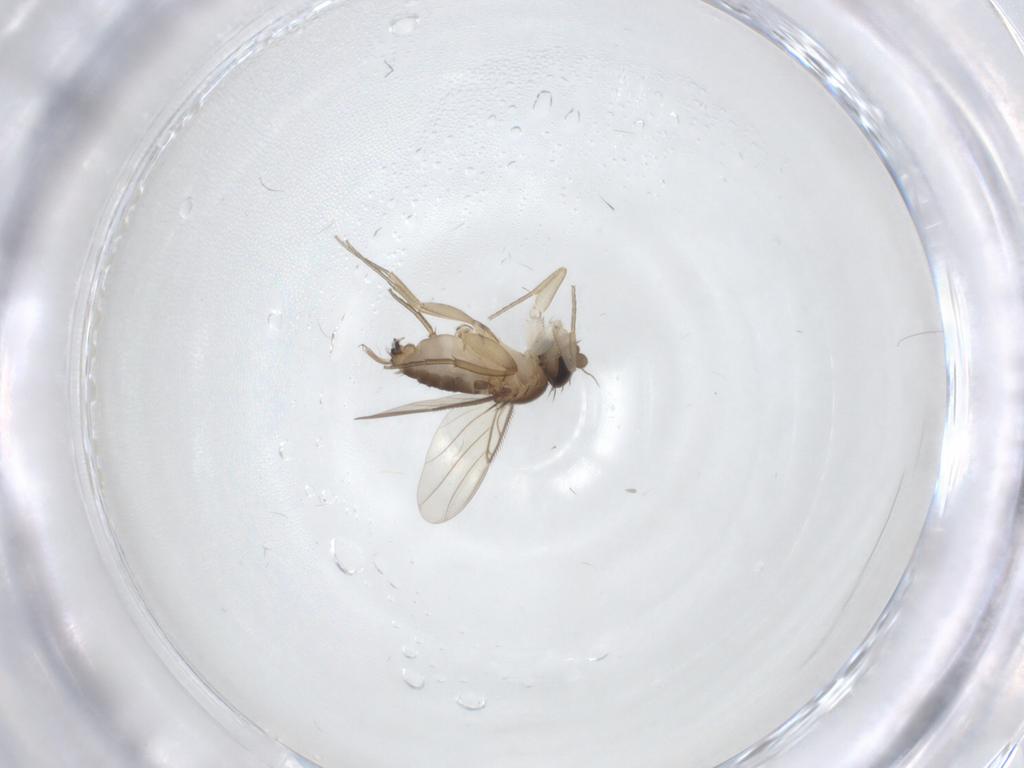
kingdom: Animalia
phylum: Arthropoda
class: Insecta
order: Diptera
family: Phoridae
